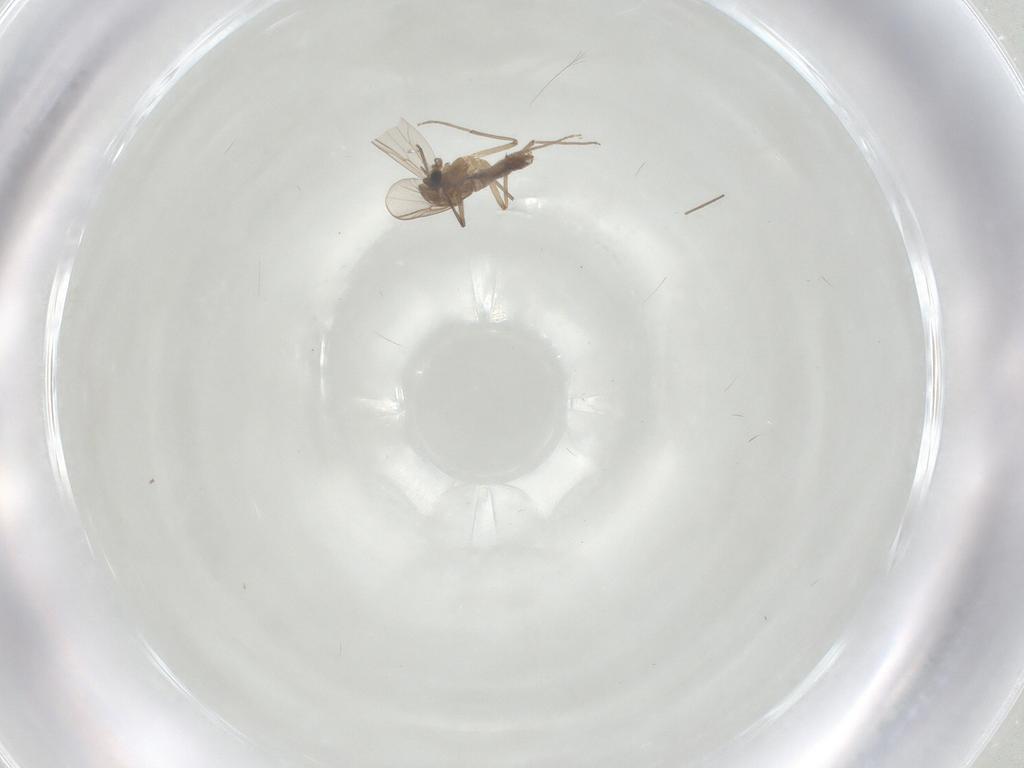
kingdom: Animalia
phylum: Arthropoda
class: Insecta
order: Diptera
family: Chironomidae
